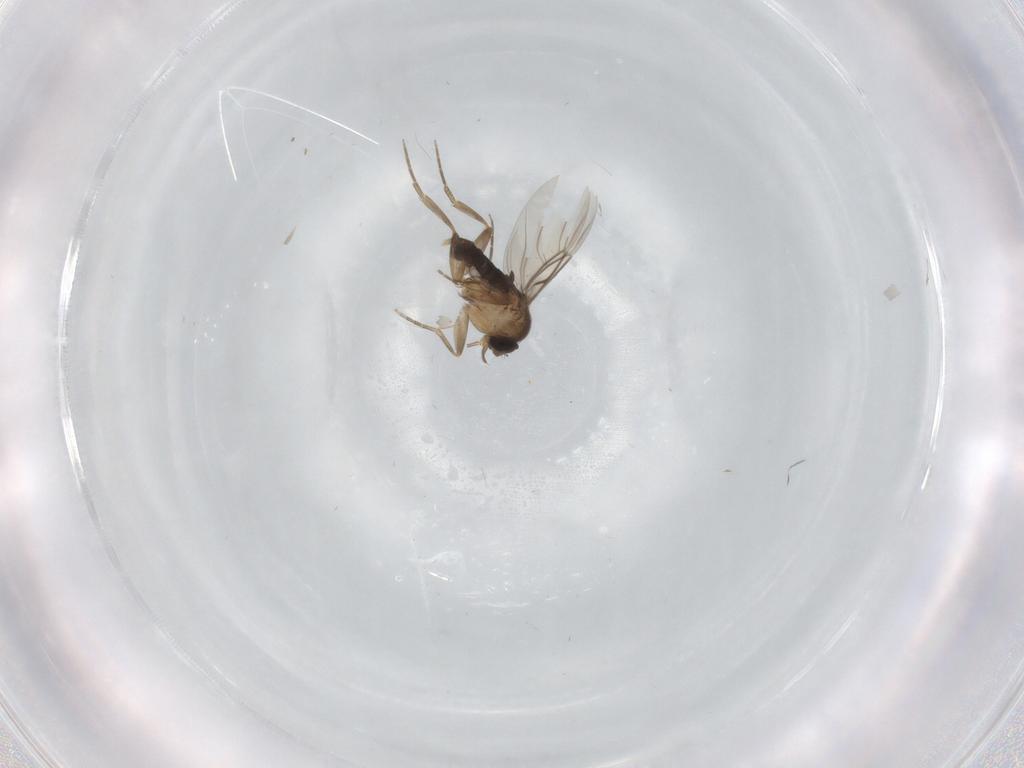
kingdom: Animalia
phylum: Arthropoda
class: Insecta
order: Diptera
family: Phoridae
